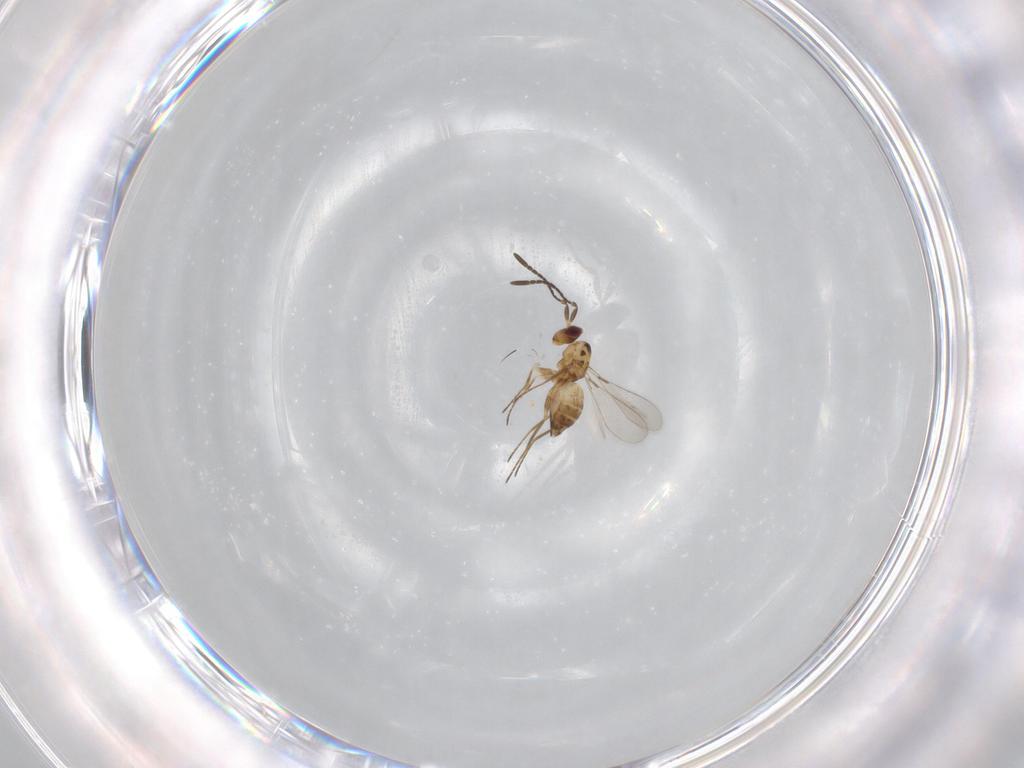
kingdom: Animalia
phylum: Arthropoda
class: Insecta
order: Hymenoptera
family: Mymaridae
